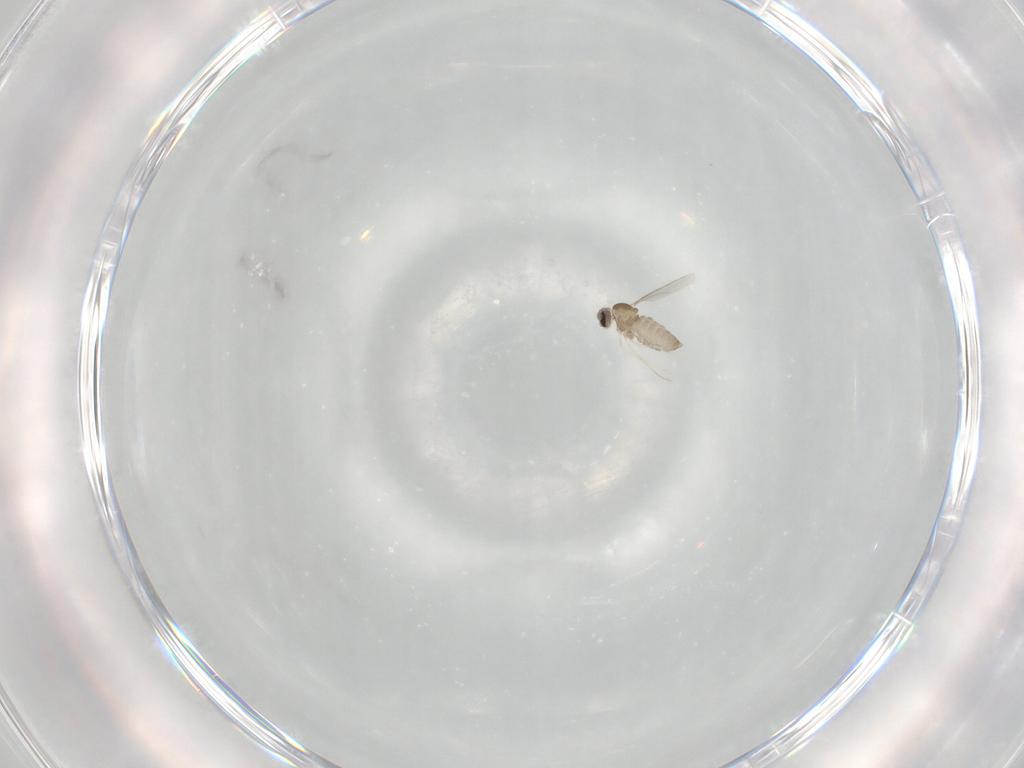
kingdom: Animalia
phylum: Arthropoda
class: Insecta
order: Diptera
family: Cecidomyiidae
